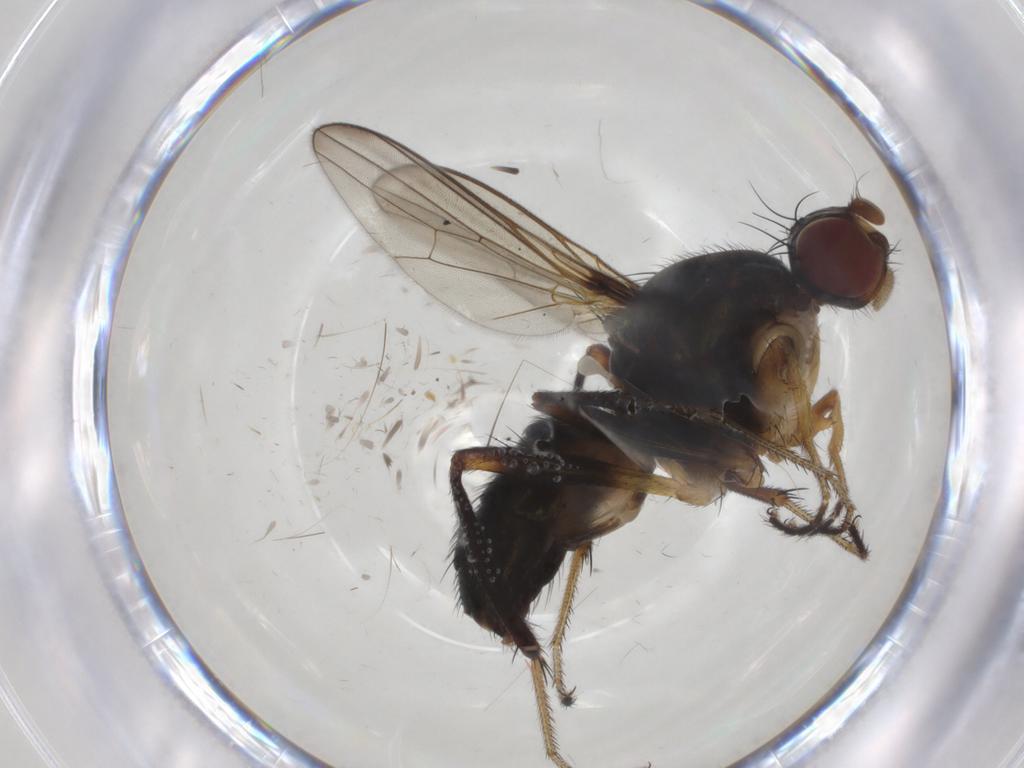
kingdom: Animalia
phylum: Arthropoda
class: Insecta
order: Diptera
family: Sepsidae
